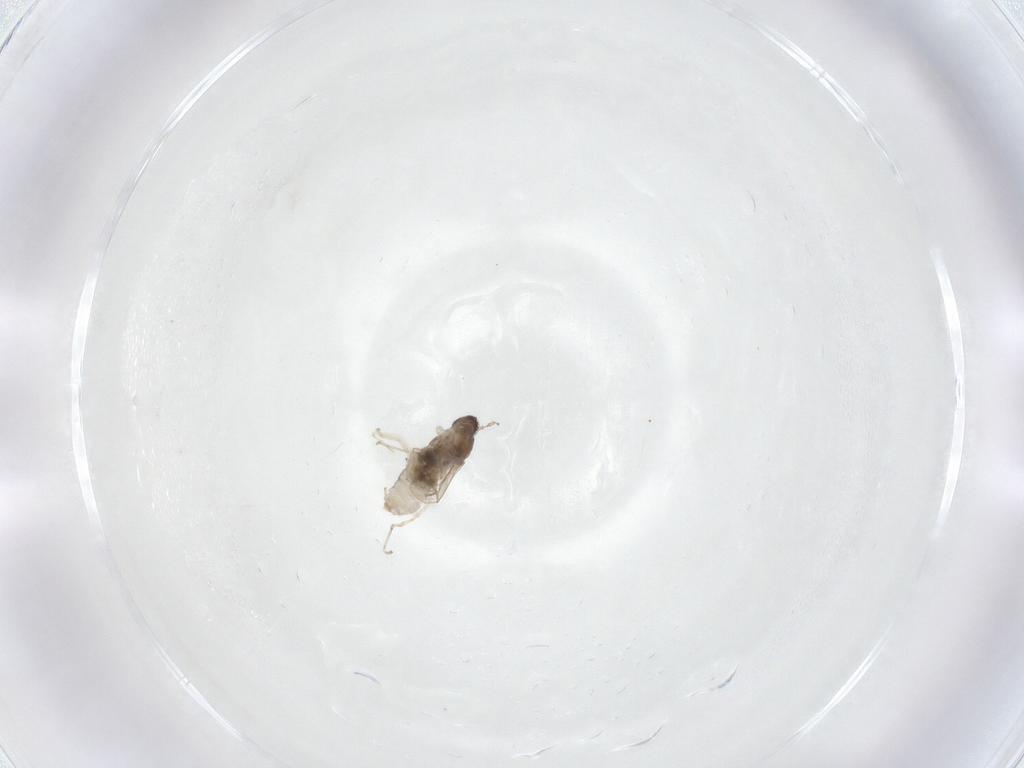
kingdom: Animalia
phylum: Arthropoda
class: Insecta
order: Diptera
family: Cecidomyiidae
